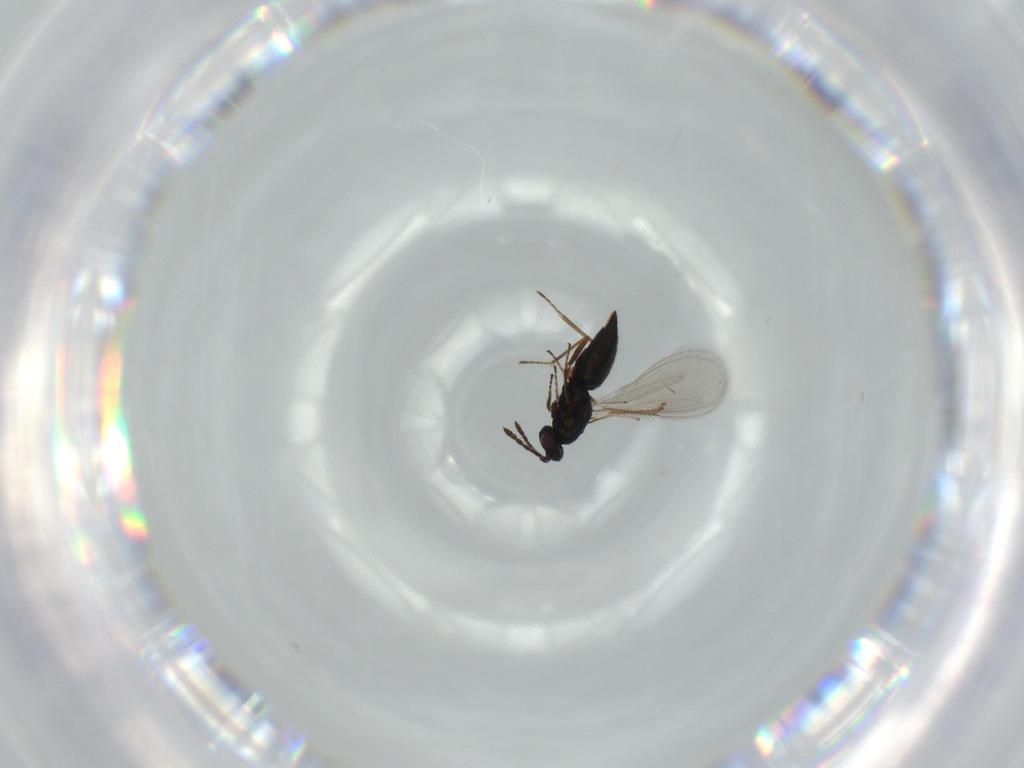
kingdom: Animalia
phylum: Arthropoda
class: Insecta
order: Hymenoptera
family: Eulophidae
